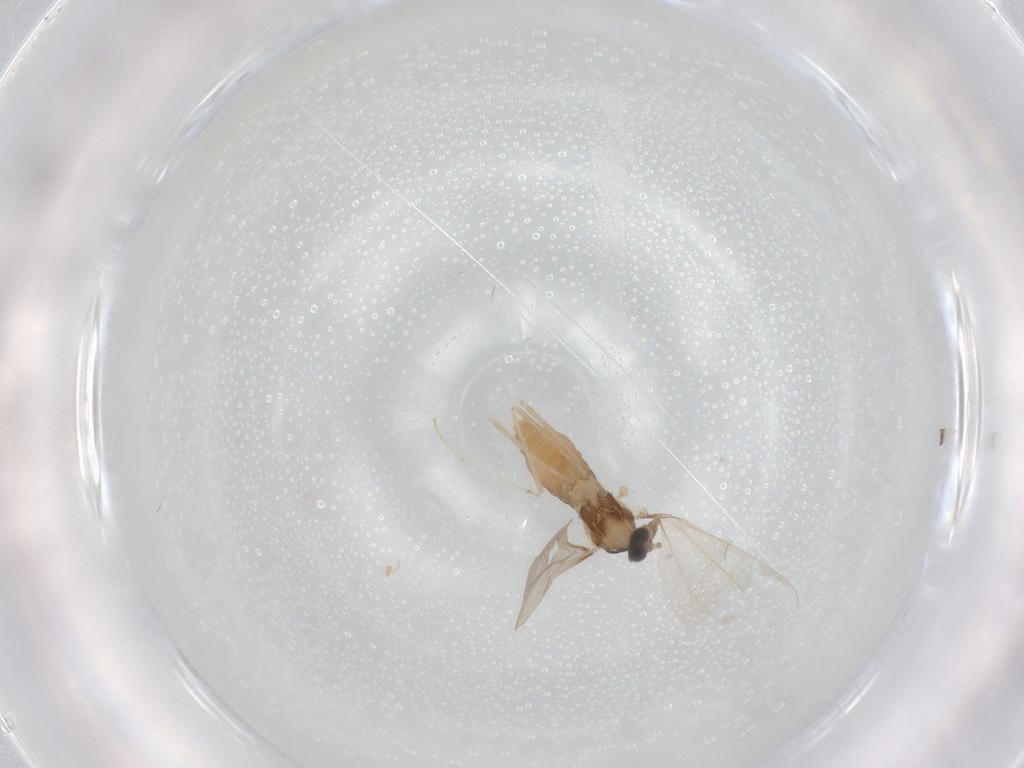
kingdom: Animalia
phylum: Arthropoda
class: Insecta
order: Diptera
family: Cecidomyiidae
